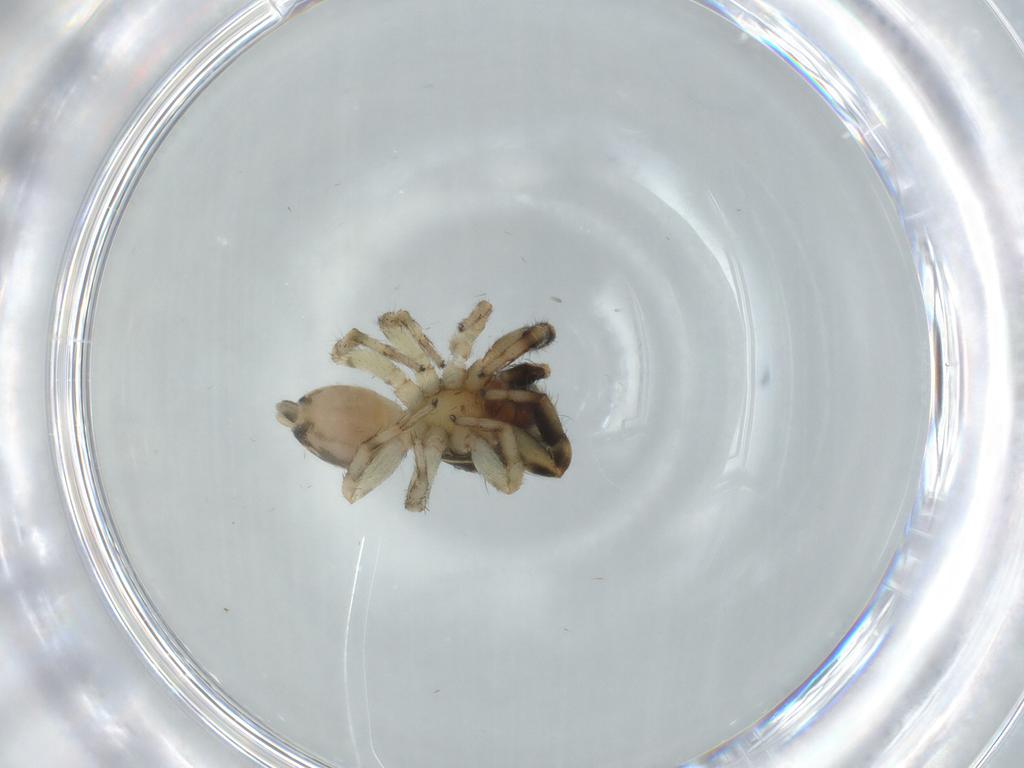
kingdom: Animalia
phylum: Arthropoda
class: Arachnida
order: Araneae
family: Salticidae
